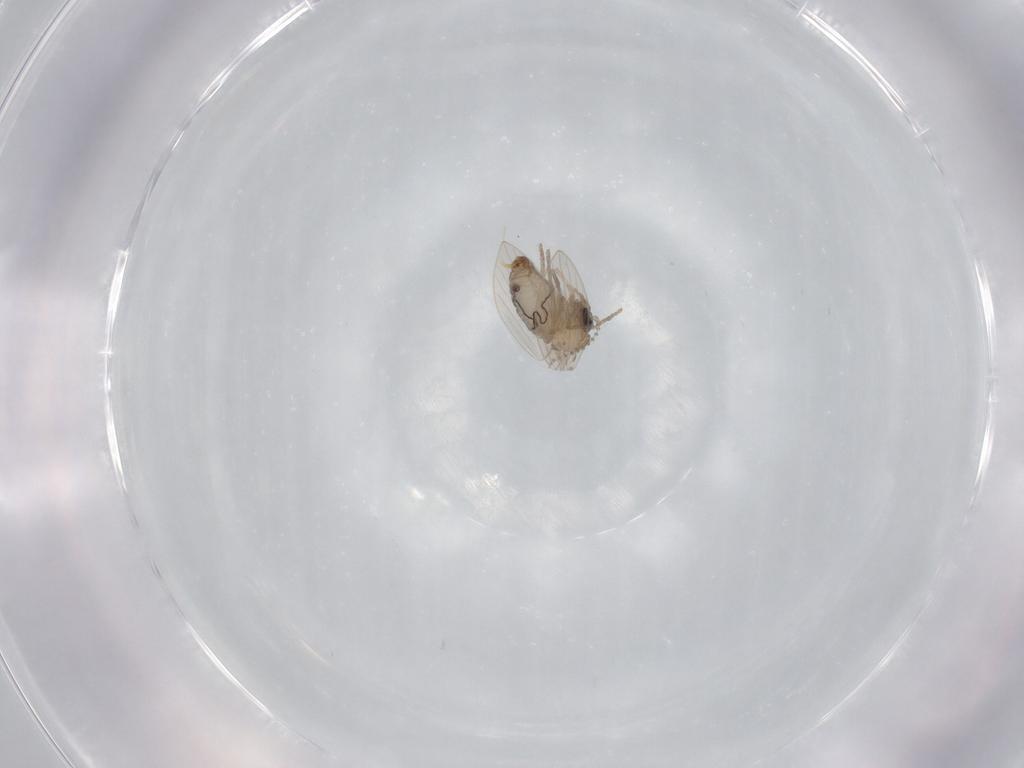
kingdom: Animalia
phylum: Arthropoda
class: Insecta
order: Diptera
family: Psychodidae
